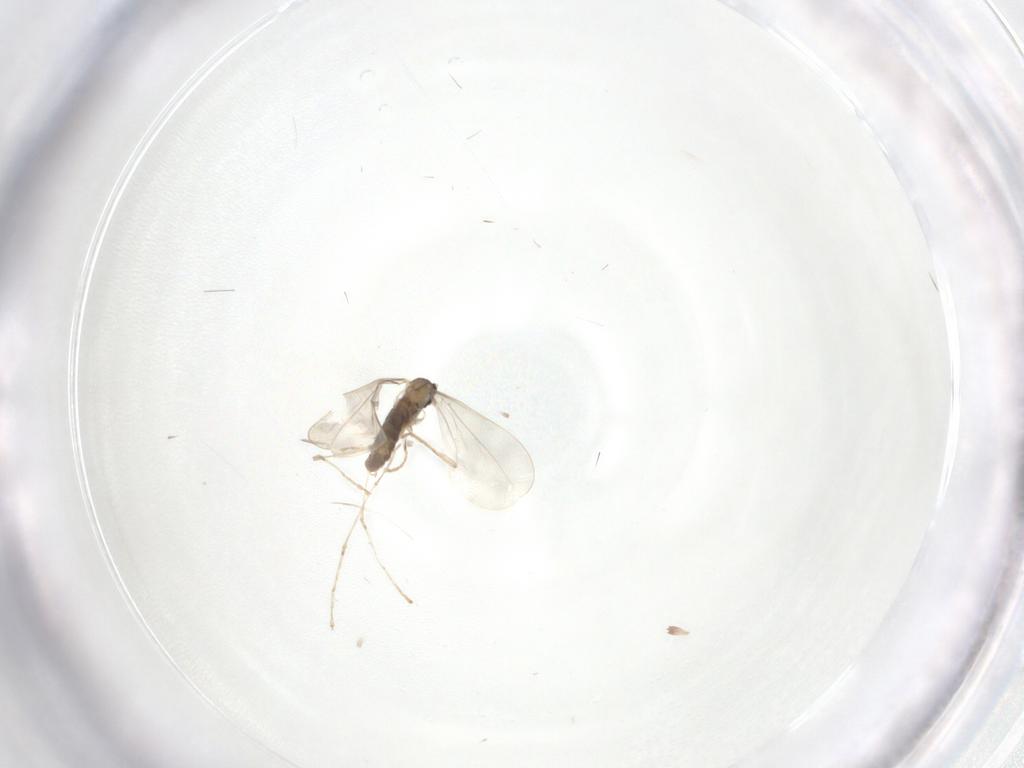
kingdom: Animalia
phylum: Arthropoda
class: Insecta
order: Diptera
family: Cecidomyiidae
